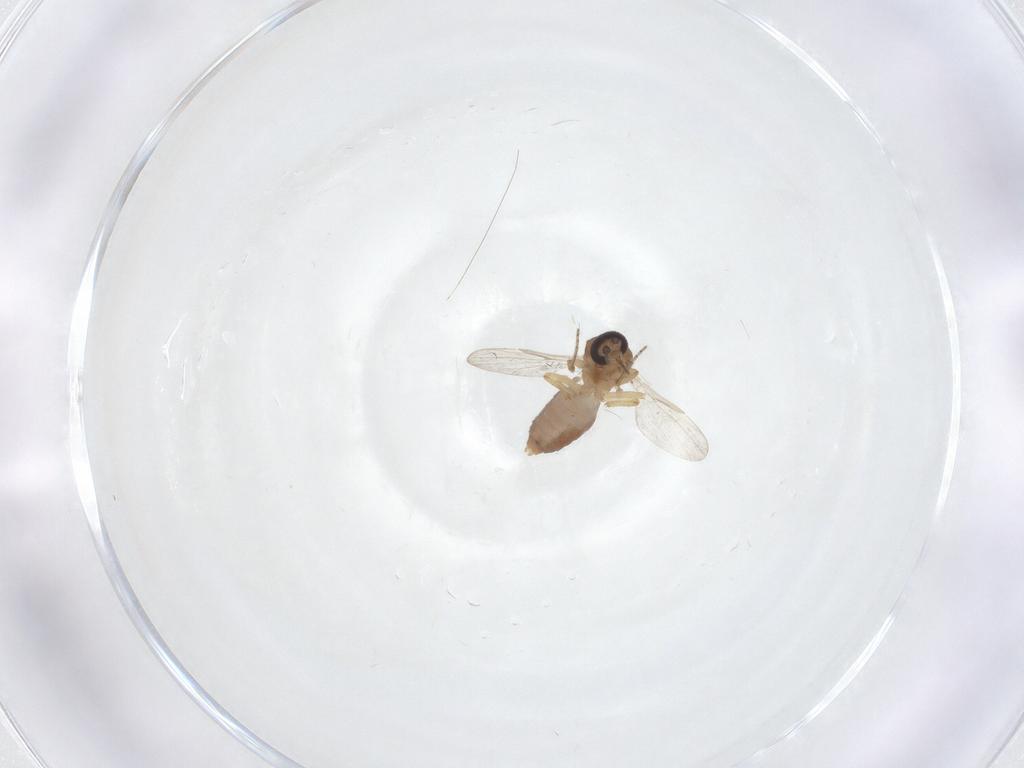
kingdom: Animalia
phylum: Arthropoda
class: Insecta
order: Diptera
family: Ceratopogonidae
